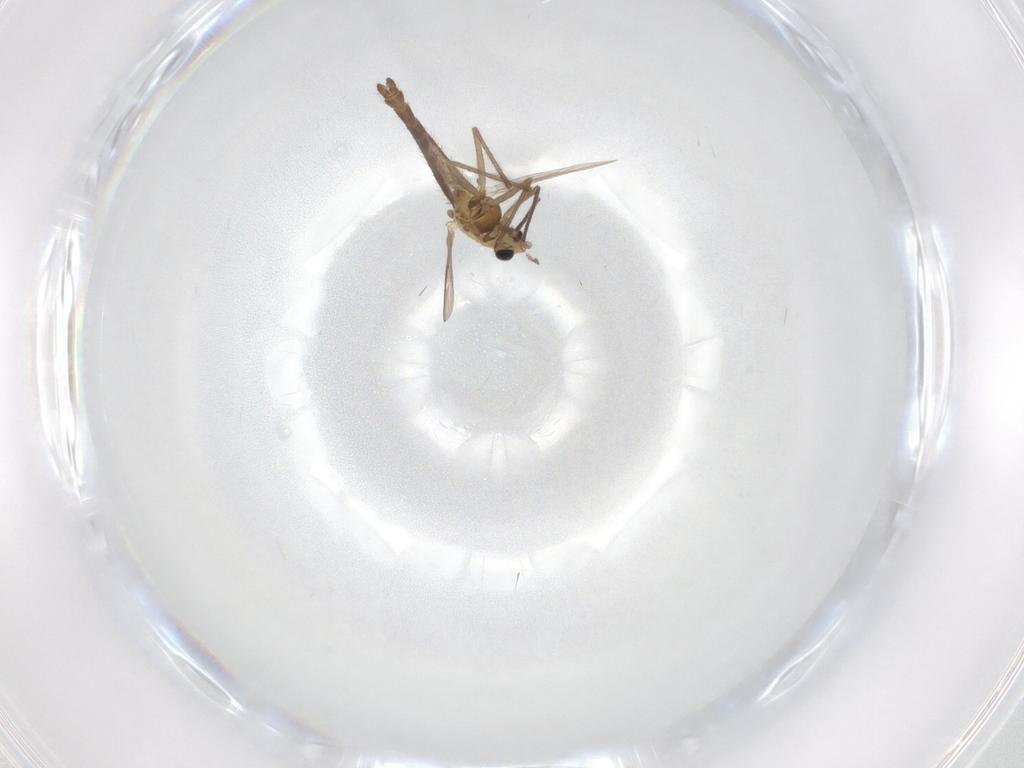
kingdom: Animalia
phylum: Arthropoda
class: Insecta
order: Diptera
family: Chironomidae
